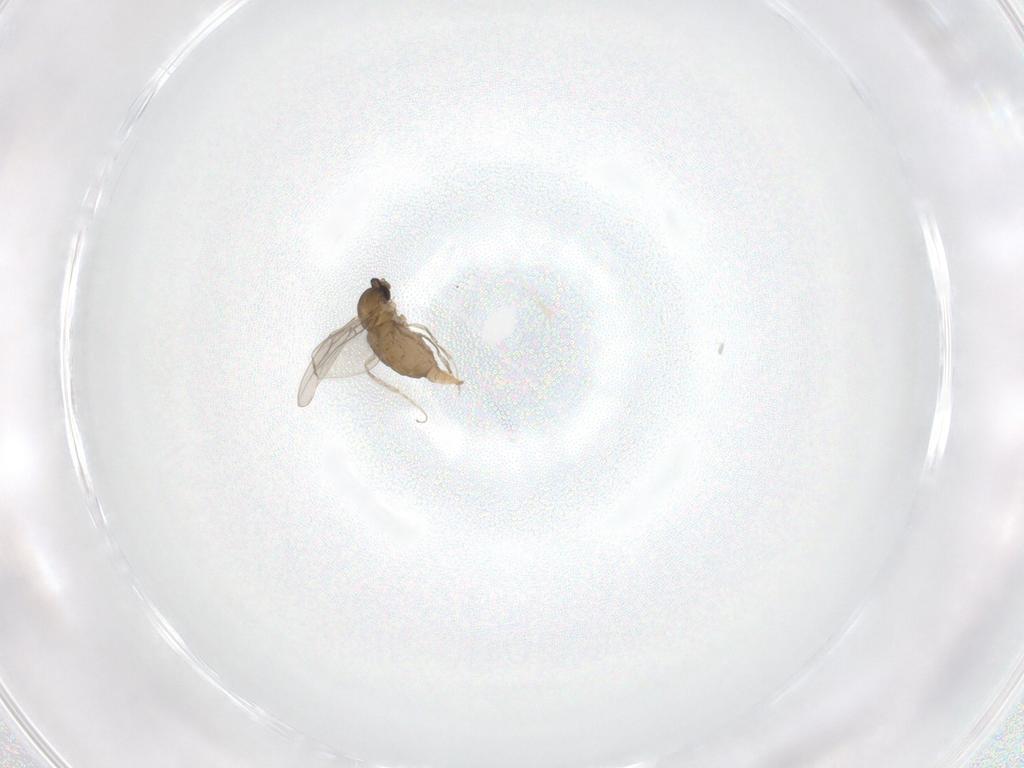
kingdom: Animalia
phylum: Arthropoda
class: Insecta
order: Diptera
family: Cecidomyiidae
